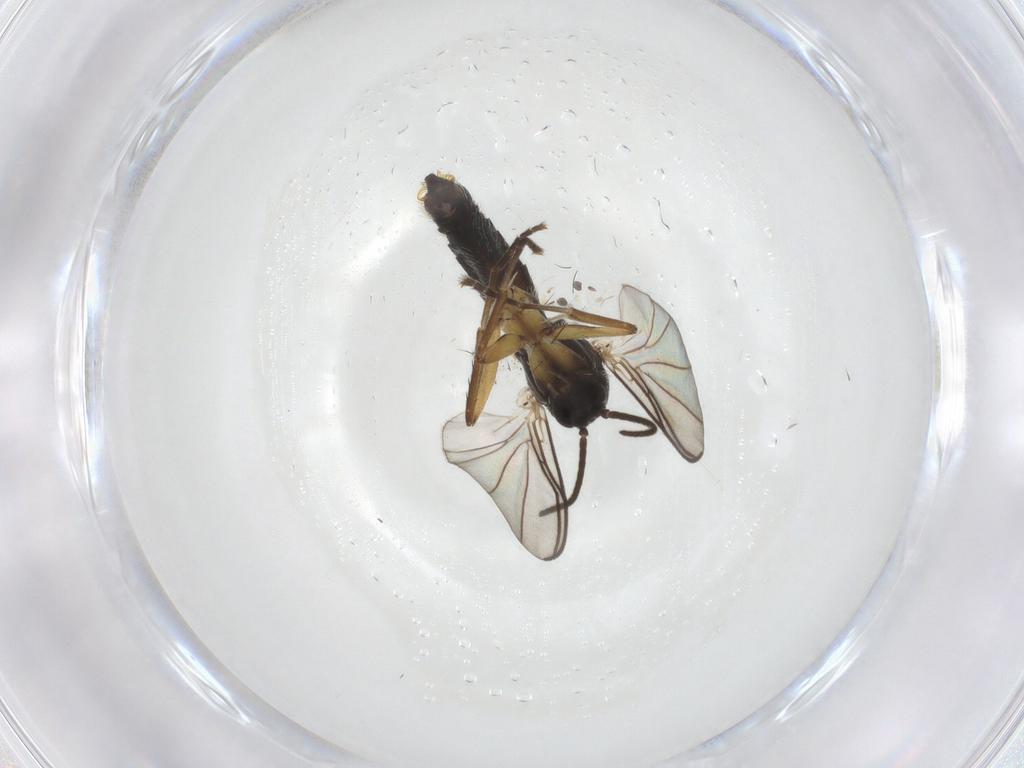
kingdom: Animalia
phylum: Arthropoda
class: Insecta
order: Diptera
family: Mycetophilidae
